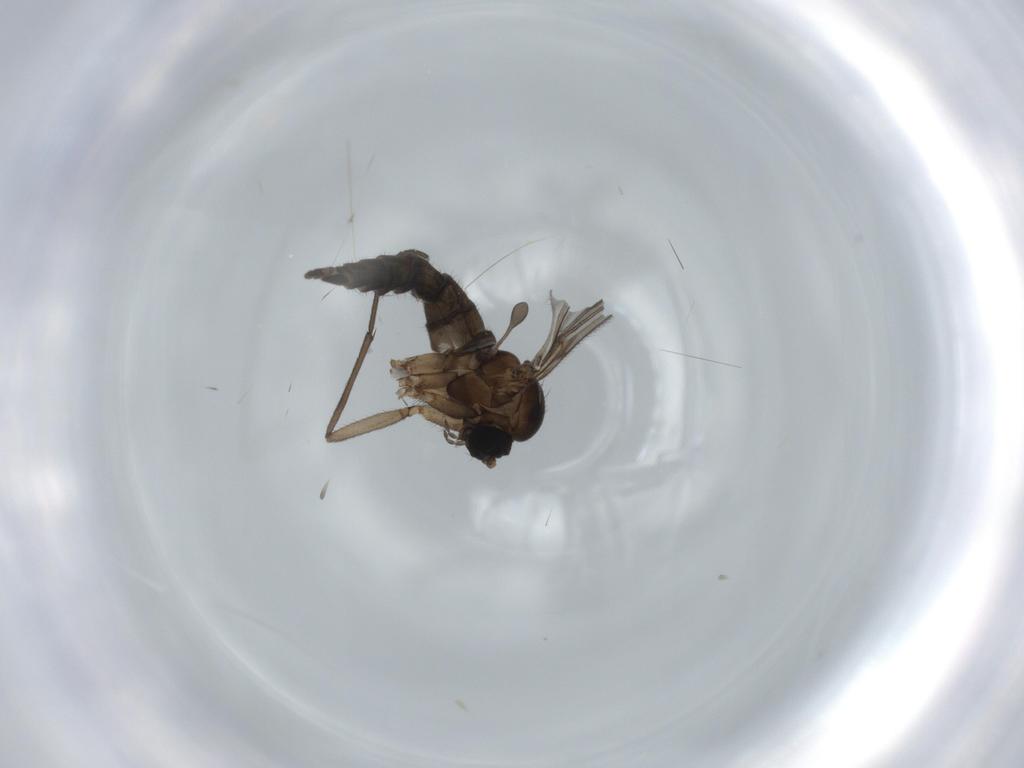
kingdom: Animalia
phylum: Arthropoda
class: Insecta
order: Diptera
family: Sciaridae
